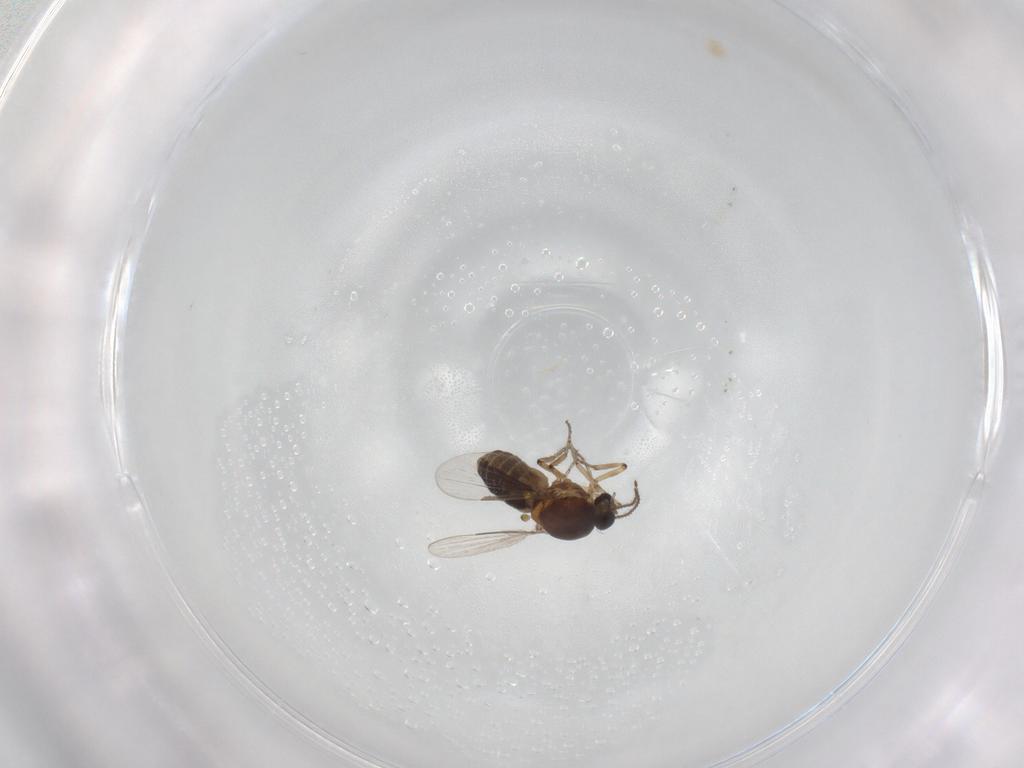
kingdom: Animalia
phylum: Arthropoda
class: Insecta
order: Diptera
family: Ceratopogonidae
